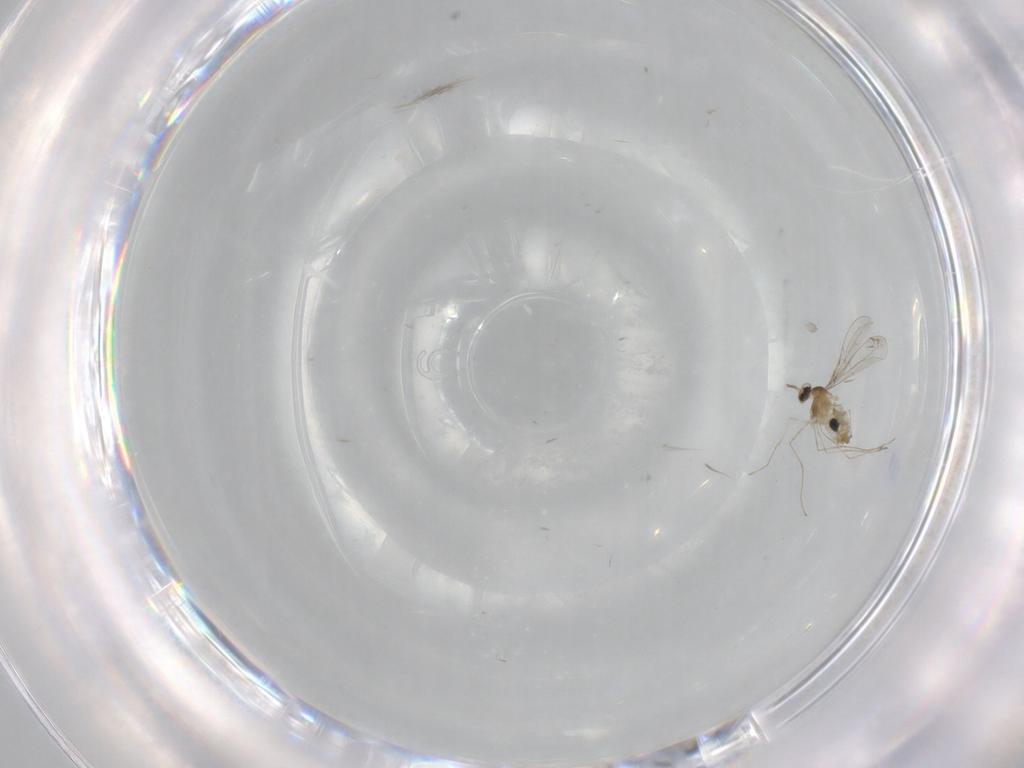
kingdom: Animalia
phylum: Arthropoda
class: Insecta
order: Diptera
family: Cecidomyiidae
